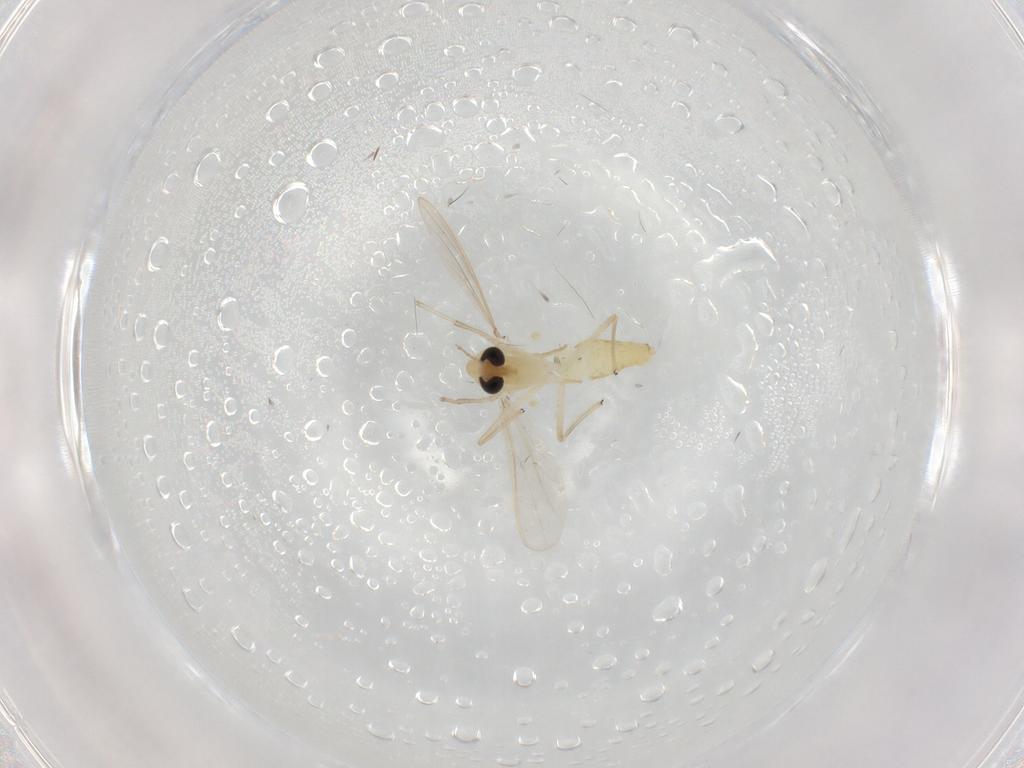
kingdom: Animalia
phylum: Arthropoda
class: Insecta
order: Diptera
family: Chironomidae
